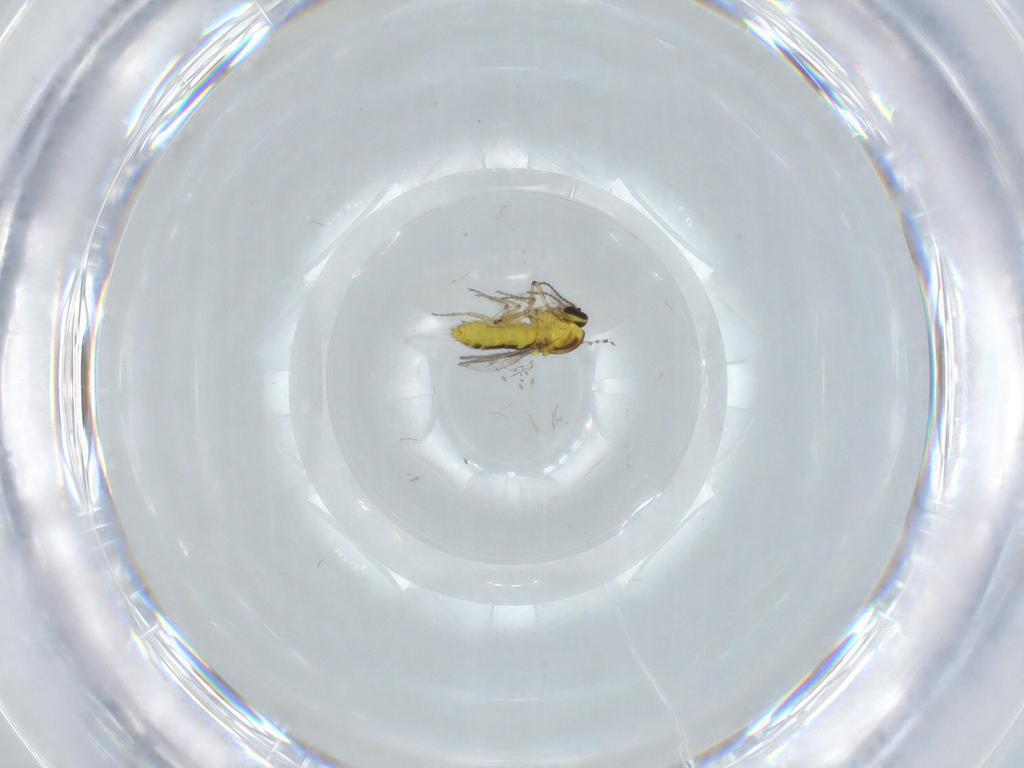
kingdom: Animalia
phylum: Arthropoda
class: Insecta
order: Diptera
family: Ceratopogonidae
